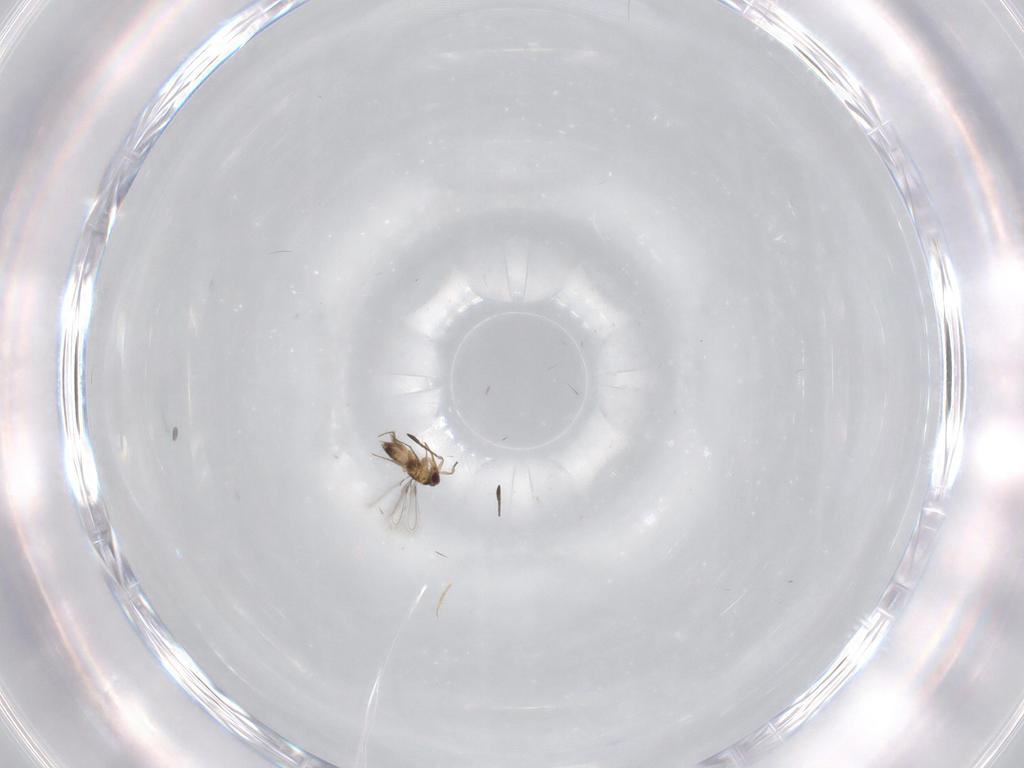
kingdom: Animalia
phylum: Arthropoda
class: Insecta
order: Hymenoptera
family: Mymaridae
